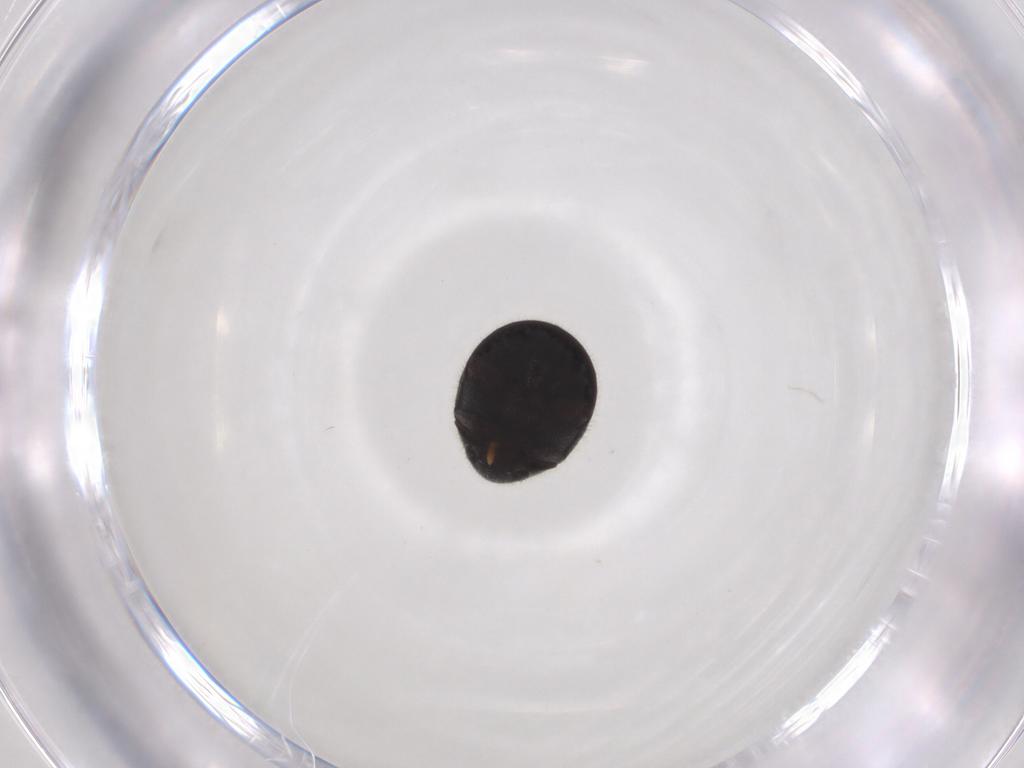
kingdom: Animalia
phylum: Arthropoda
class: Insecta
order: Coleoptera
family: Ptinidae
